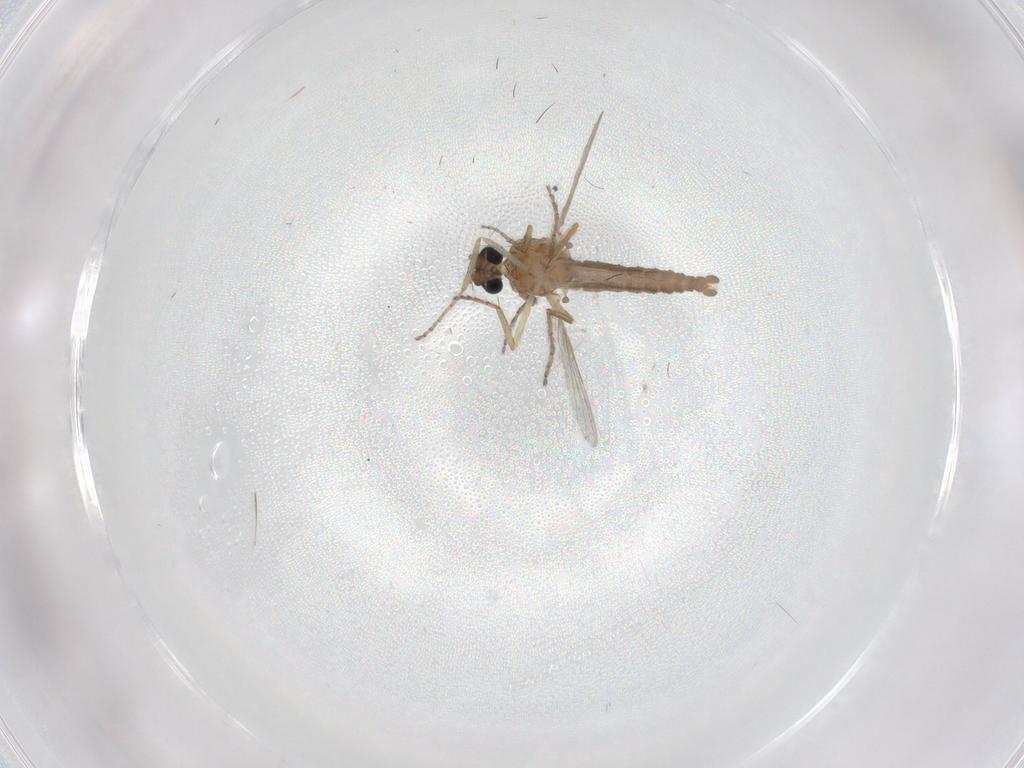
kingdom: Animalia
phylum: Arthropoda
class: Insecta
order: Diptera
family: Ceratopogonidae
